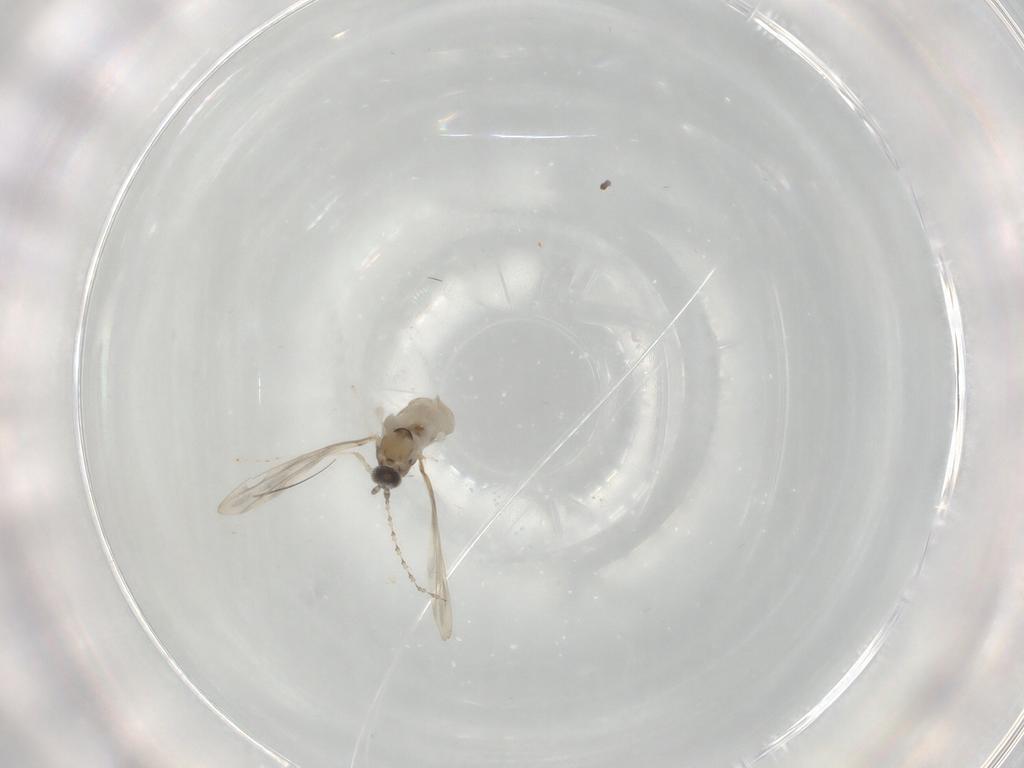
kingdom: Animalia
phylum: Arthropoda
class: Insecta
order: Diptera
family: Cecidomyiidae
